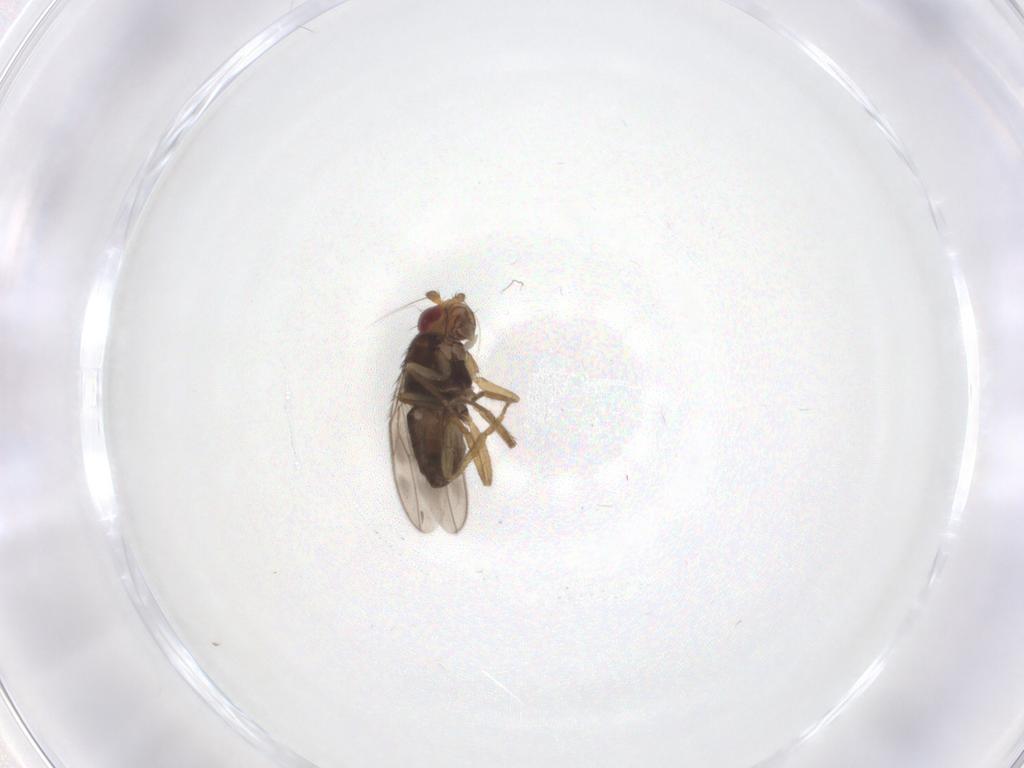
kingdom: Animalia
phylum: Arthropoda
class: Insecta
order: Diptera
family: Sphaeroceridae
